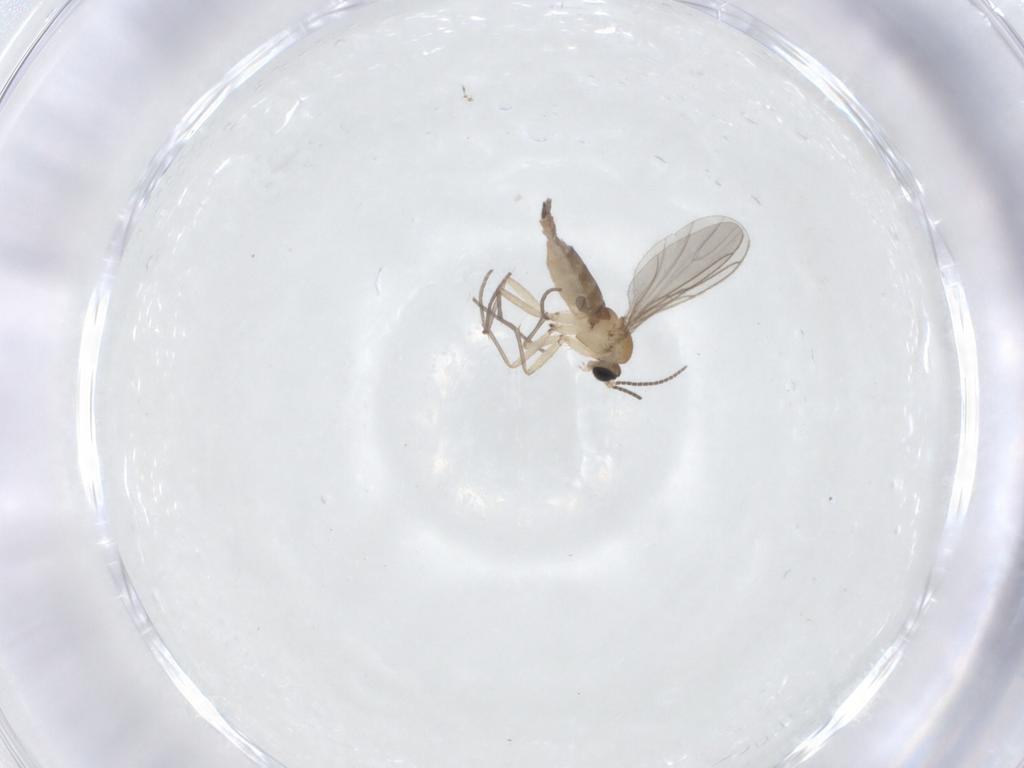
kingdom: Animalia
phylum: Arthropoda
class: Insecta
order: Diptera
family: Sciaridae
